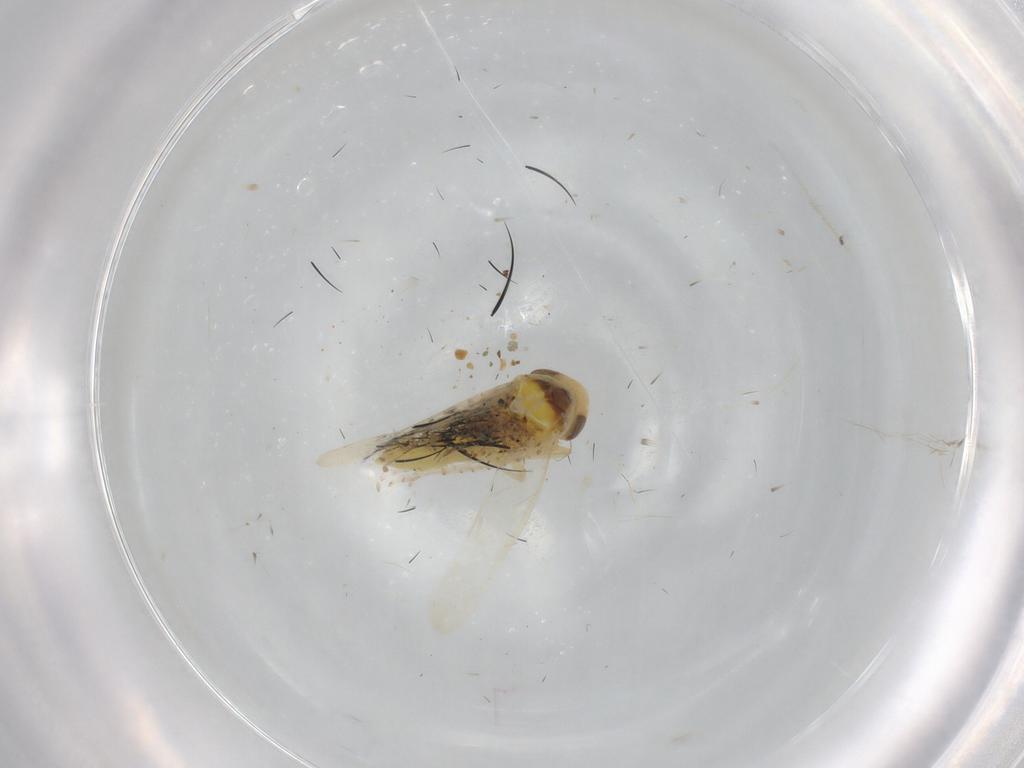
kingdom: Animalia
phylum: Arthropoda
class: Insecta
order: Hemiptera
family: Cicadellidae
